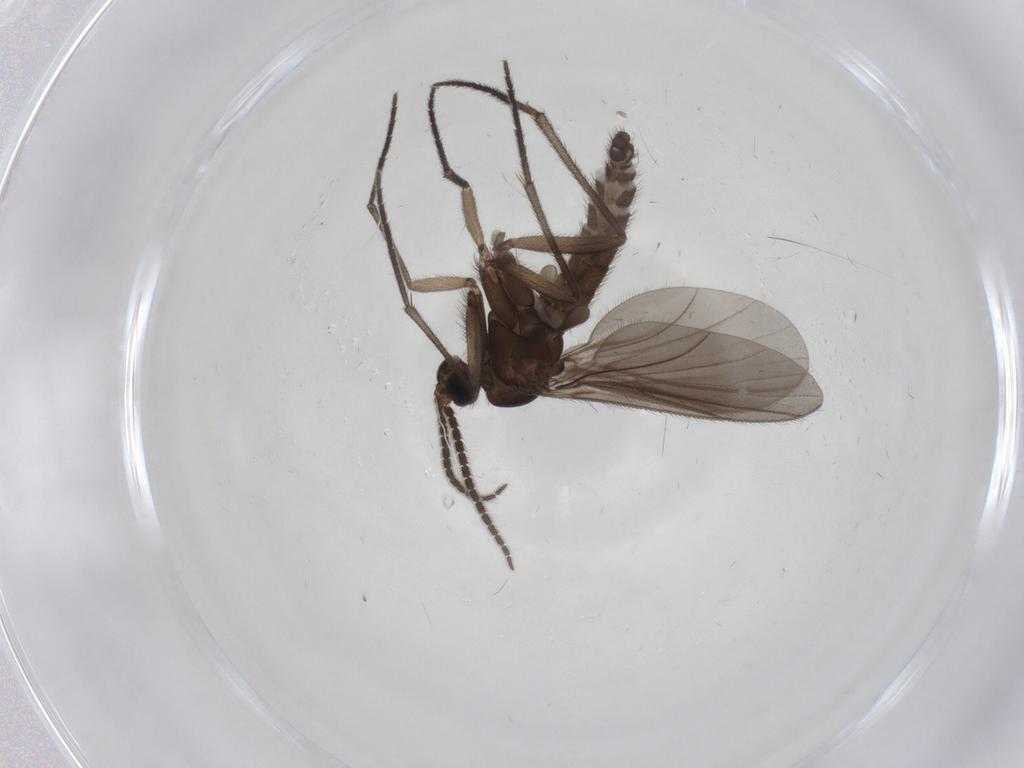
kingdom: Animalia
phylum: Arthropoda
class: Insecta
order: Diptera
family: Sciaridae
